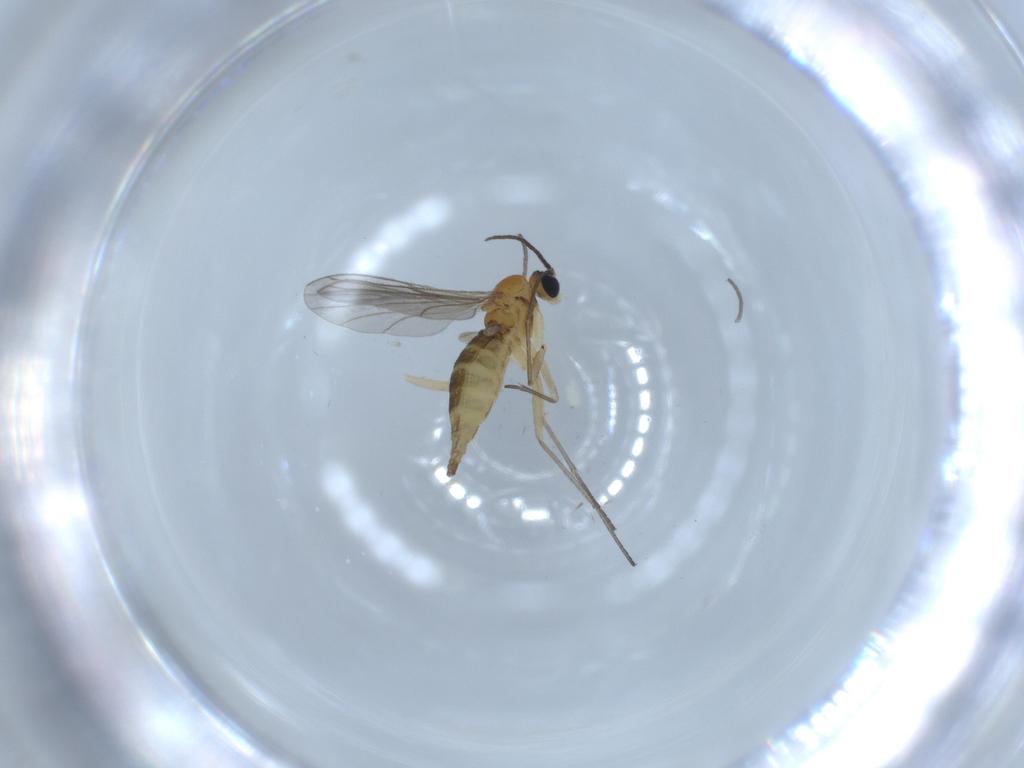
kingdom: Animalia
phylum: Arthropoda
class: Insecta
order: Diptera
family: Sciaridae
